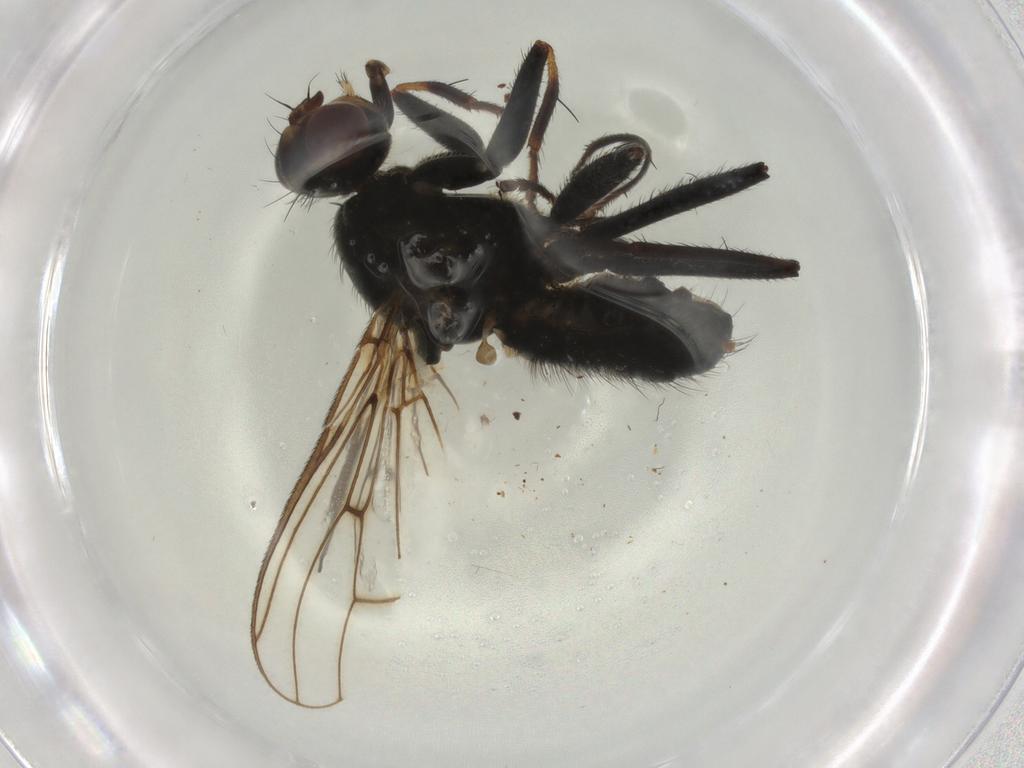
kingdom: Animalia
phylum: Arthropoda
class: Insecta
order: Diptera
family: Sciaridae
